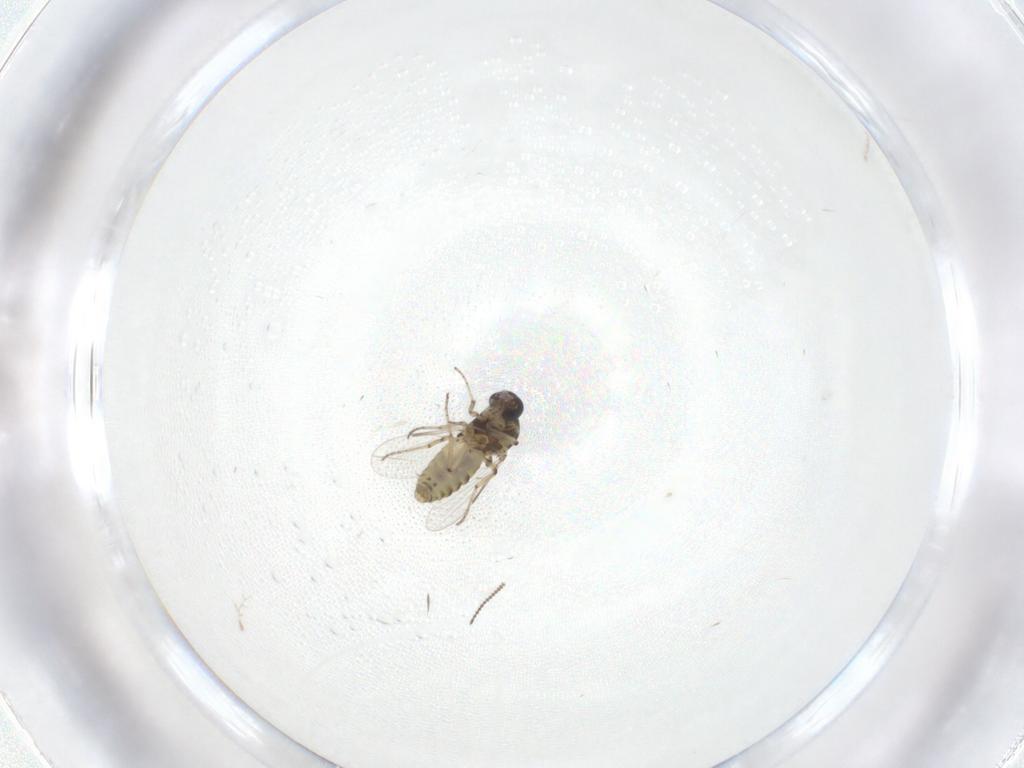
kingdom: Animalia
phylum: Arthropoda
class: Insecta
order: Diptera
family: Ceratopogonidae
